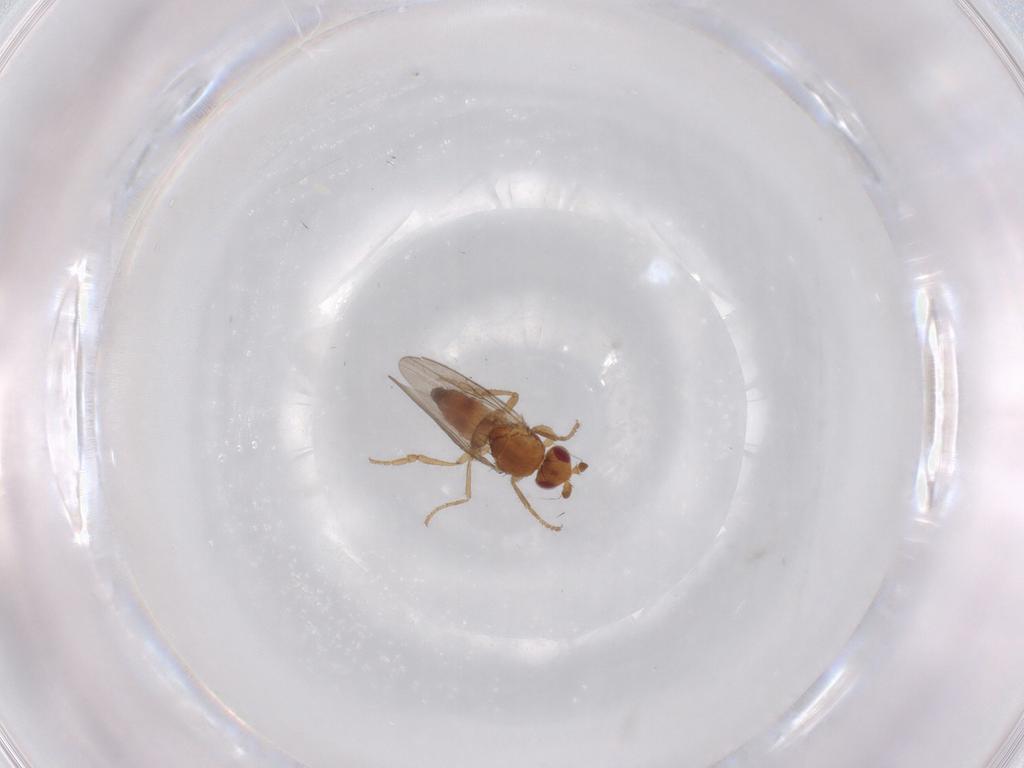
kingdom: Animalia
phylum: Arthropoda
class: Insecta
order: Diptera
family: Sphaeroceridae
